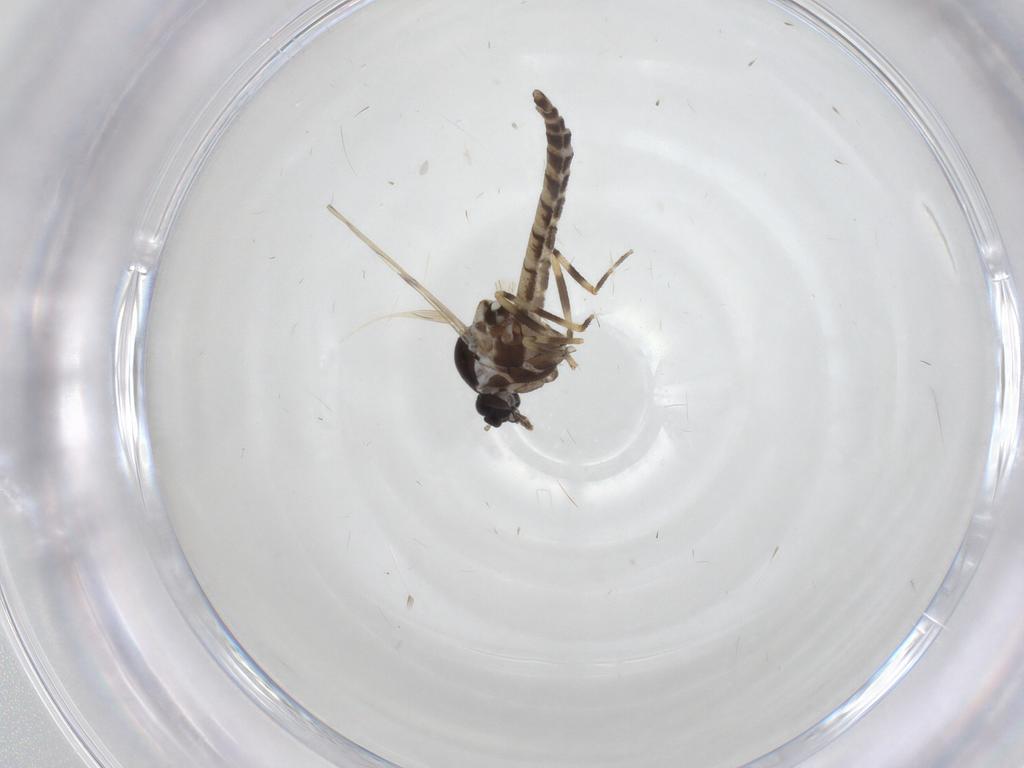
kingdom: Animalia
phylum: Arthropoda
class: Insecta
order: Diptera
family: Ceratopogonidae
